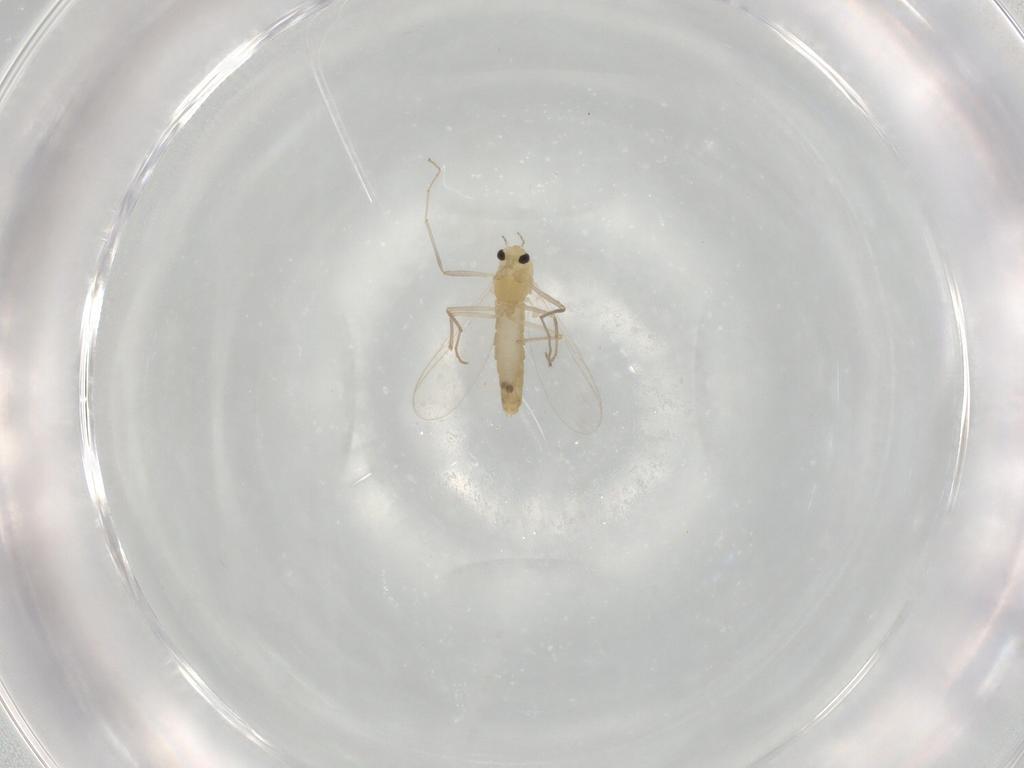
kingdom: Animalia
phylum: Arthropoda
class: Insecta
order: Diptera
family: Chironomidae
